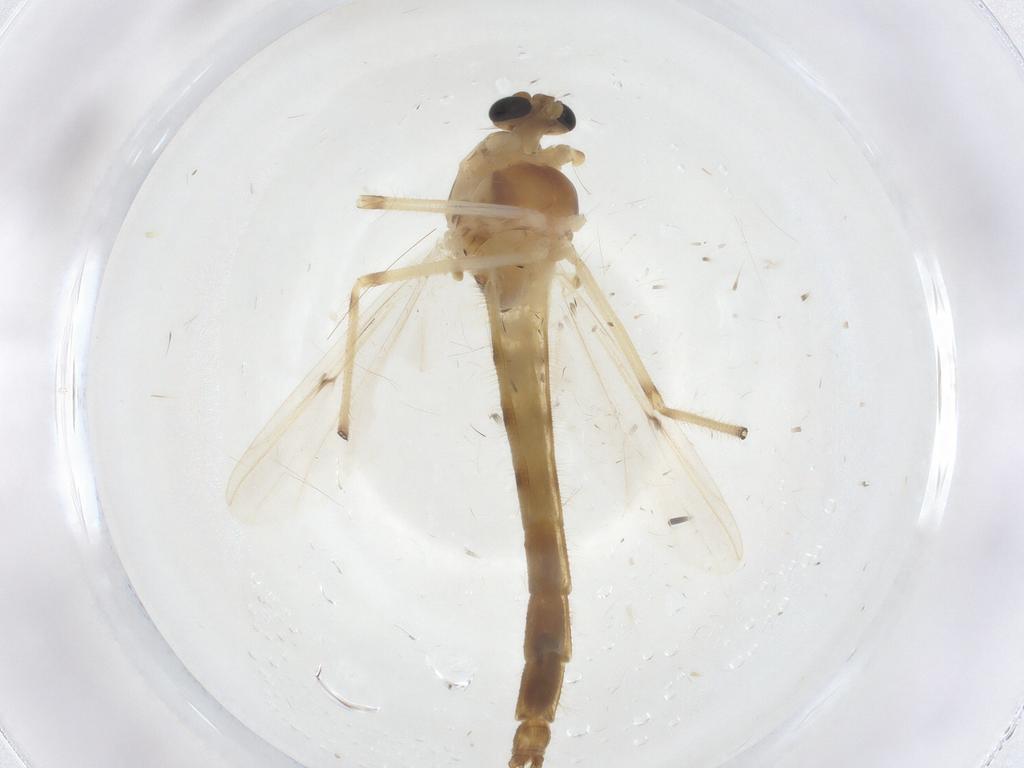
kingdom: Animalia
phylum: Arthropoda
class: Insecta
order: Diptera
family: Chironomidae
